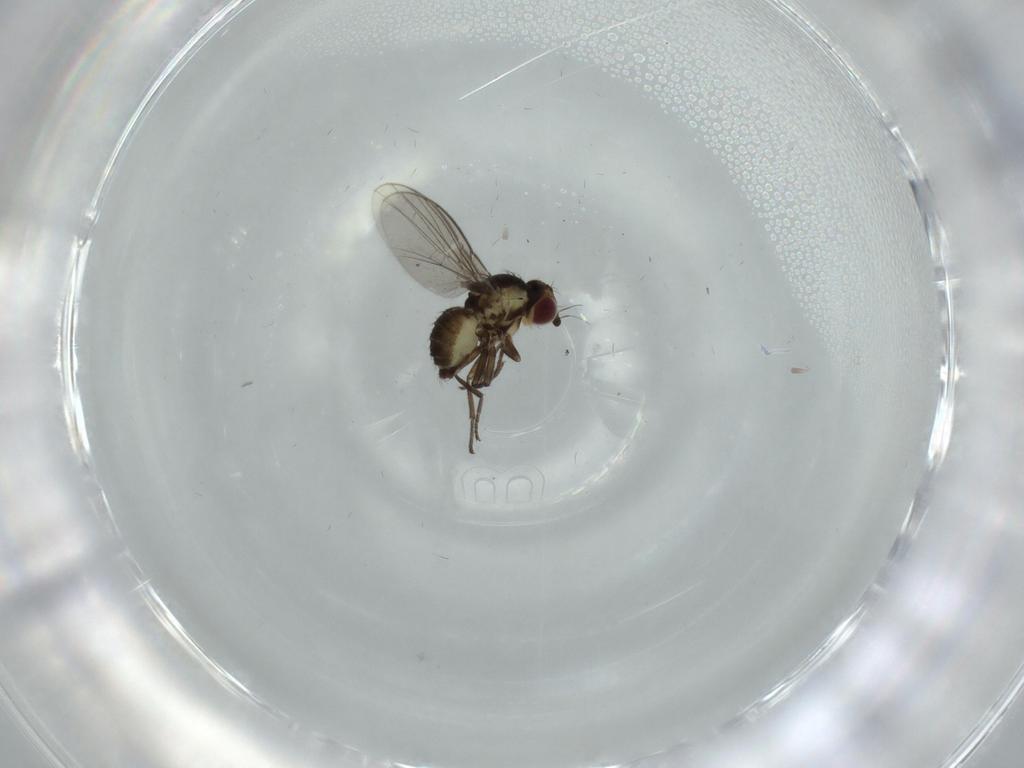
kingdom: Animalia
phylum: Arthropoda
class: Insecta
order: Diptera
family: Agromyzidae
